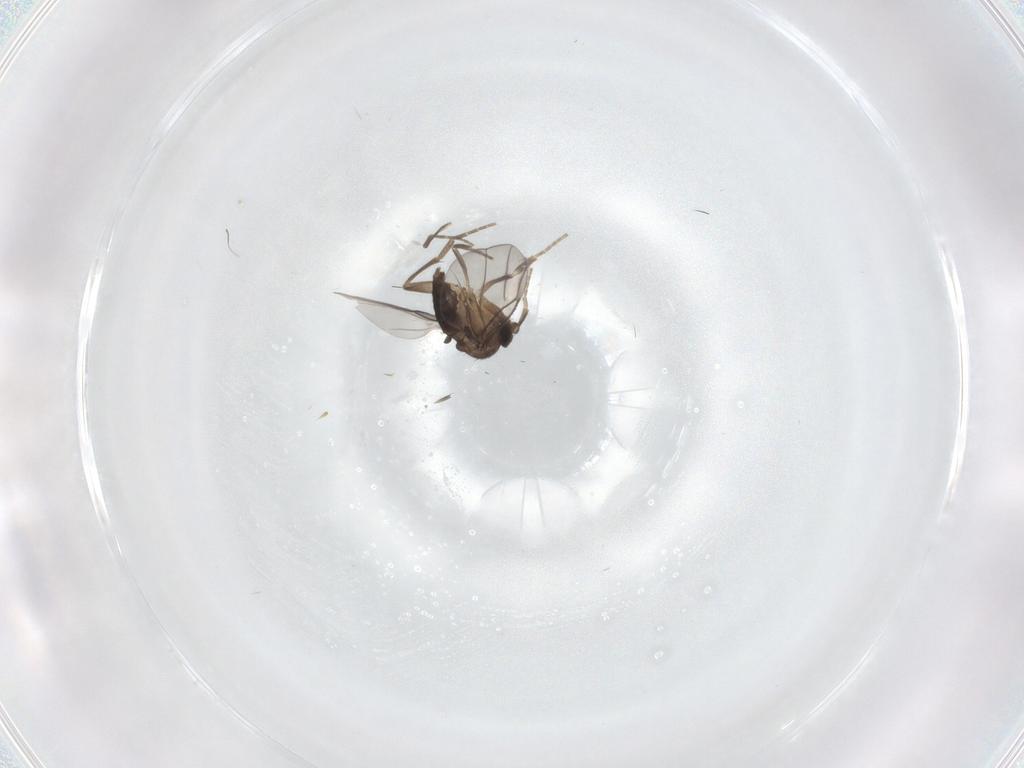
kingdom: Animalia
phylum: Arthropoda
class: Insecta
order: Diptera
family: Phoridae
